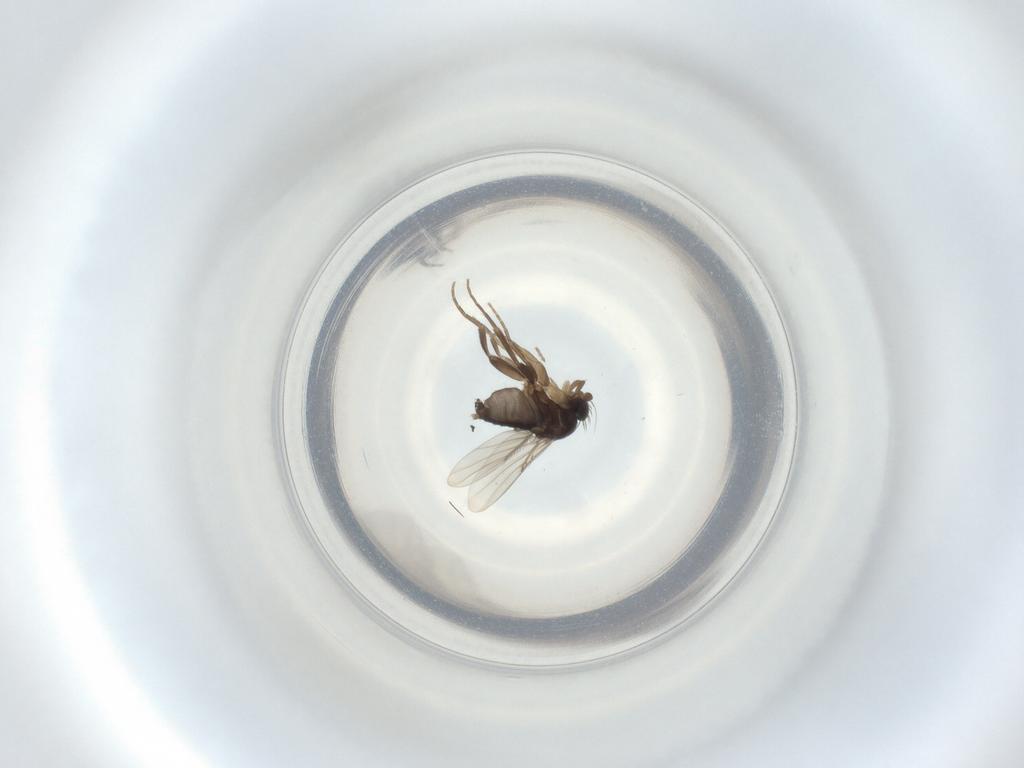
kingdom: Animalia
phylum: Arthropoda
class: Insecta
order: Diptera
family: Phoridae
